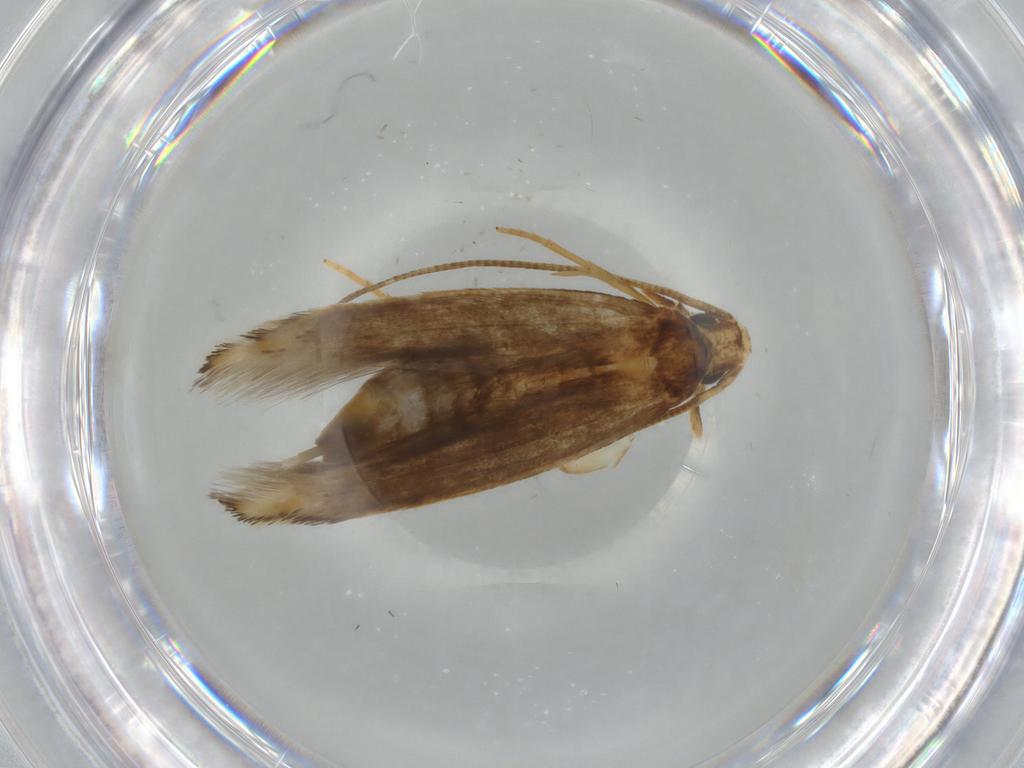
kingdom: Animalia
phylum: Arthropoda
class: Insecta
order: Lepidoptera
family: Tineidae
